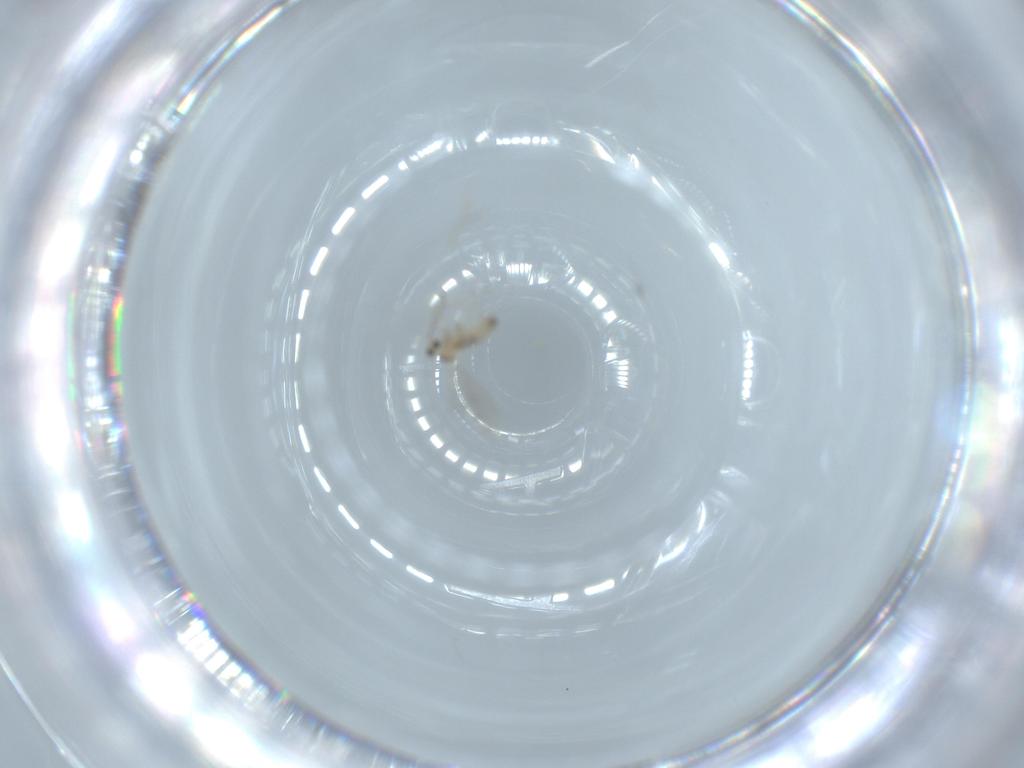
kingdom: Animalia
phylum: Arthropoda
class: Insecta
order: Diptera
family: Cecidomyiidae
